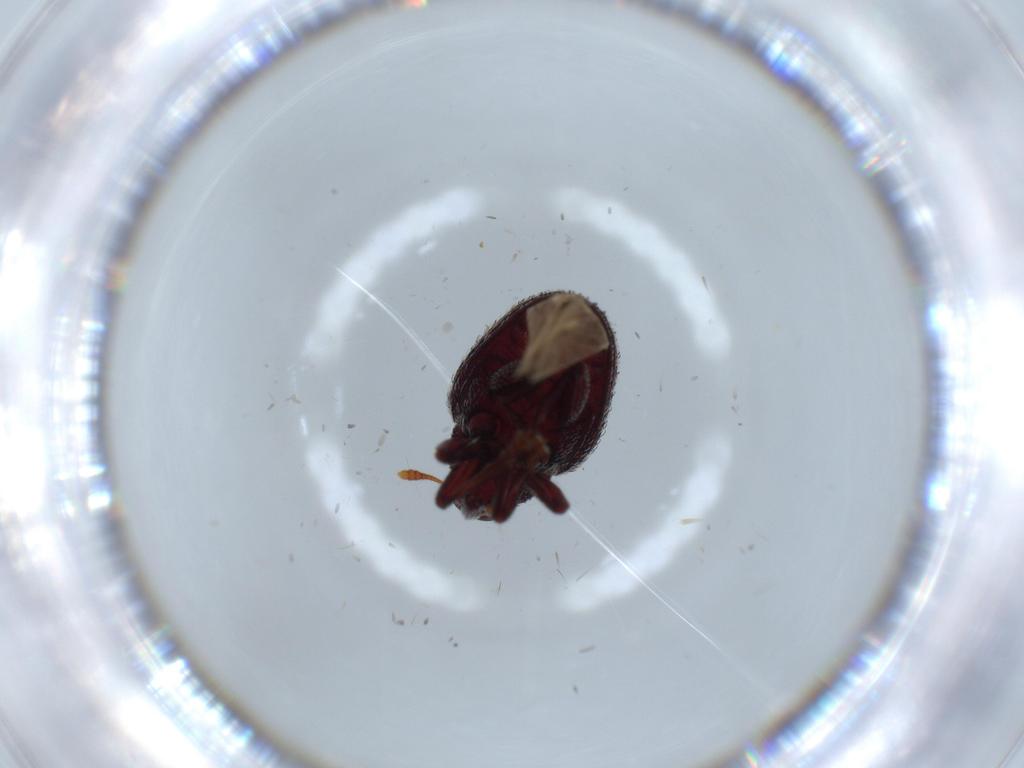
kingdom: Animalia
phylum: Arthropoda
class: Insecta
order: Coleoptera
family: Curculionidae
